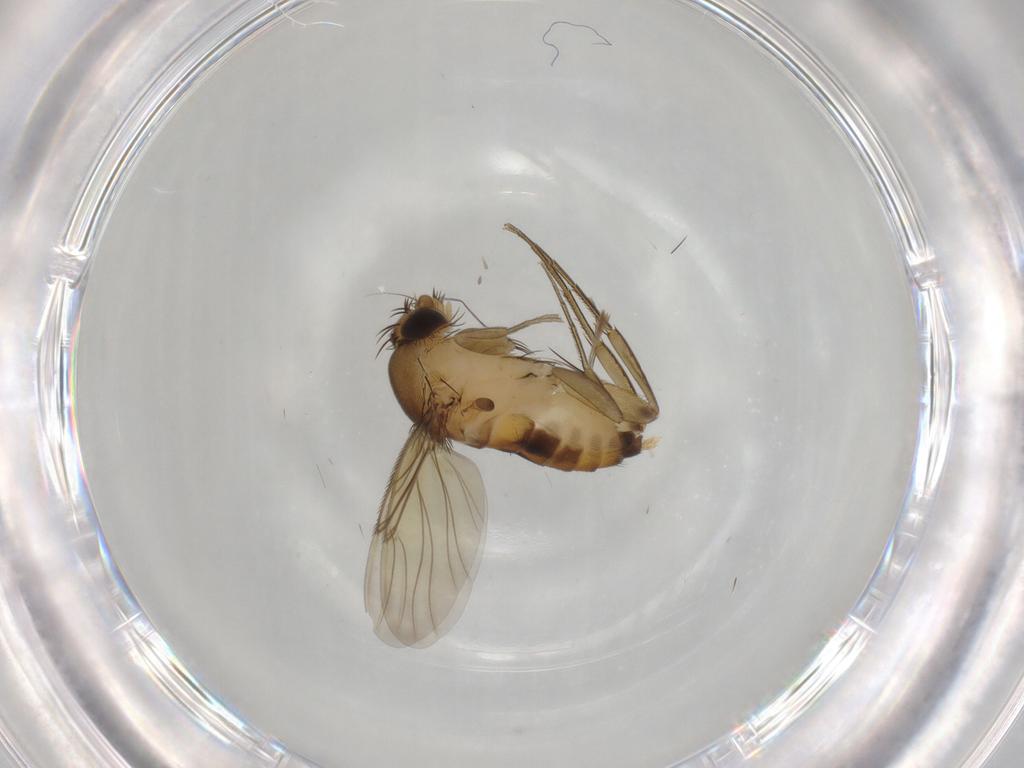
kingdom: Animalia
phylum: Arthropoda
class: Insecta
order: Diptera
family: Phoridae
